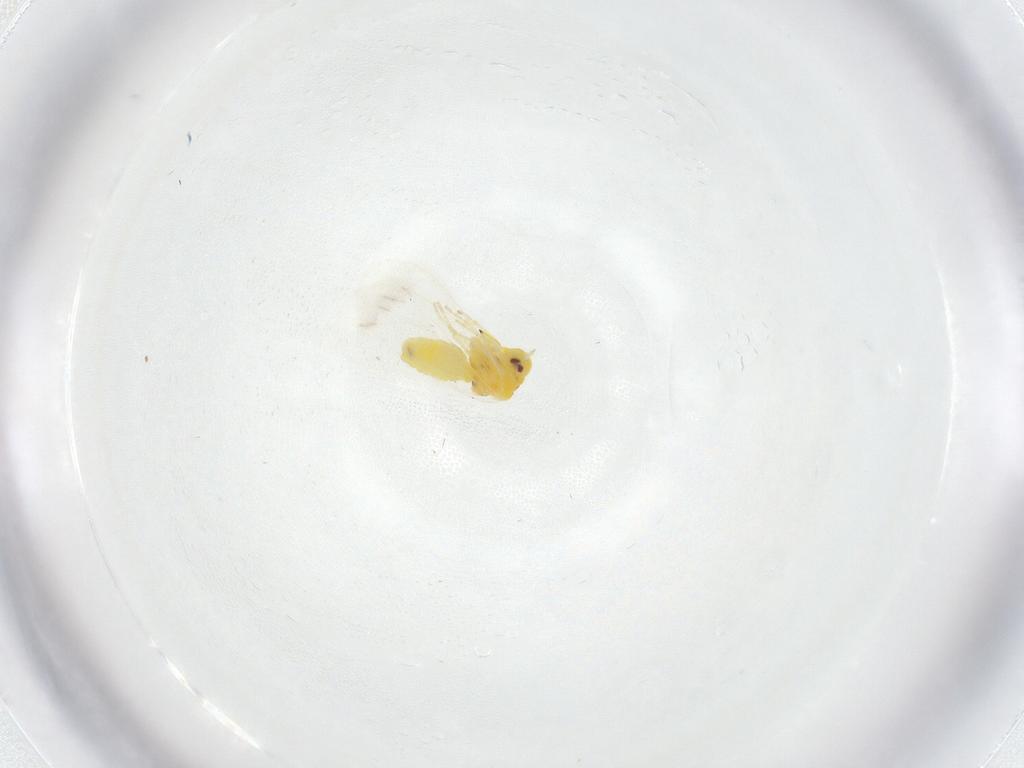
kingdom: Animalia
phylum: Arthropoda
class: Insecta
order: Hemiptera
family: Aleyrodidae
